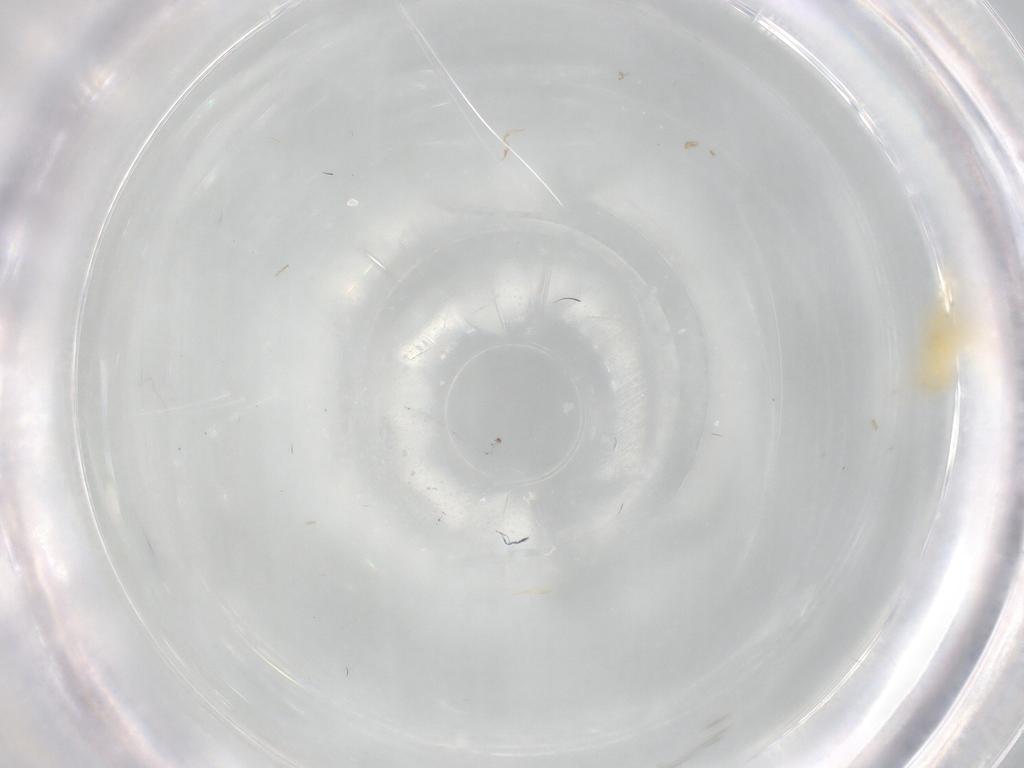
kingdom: Animalia
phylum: Arthropoda
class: Insecta
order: Hemiptera
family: Aleyrodidae
